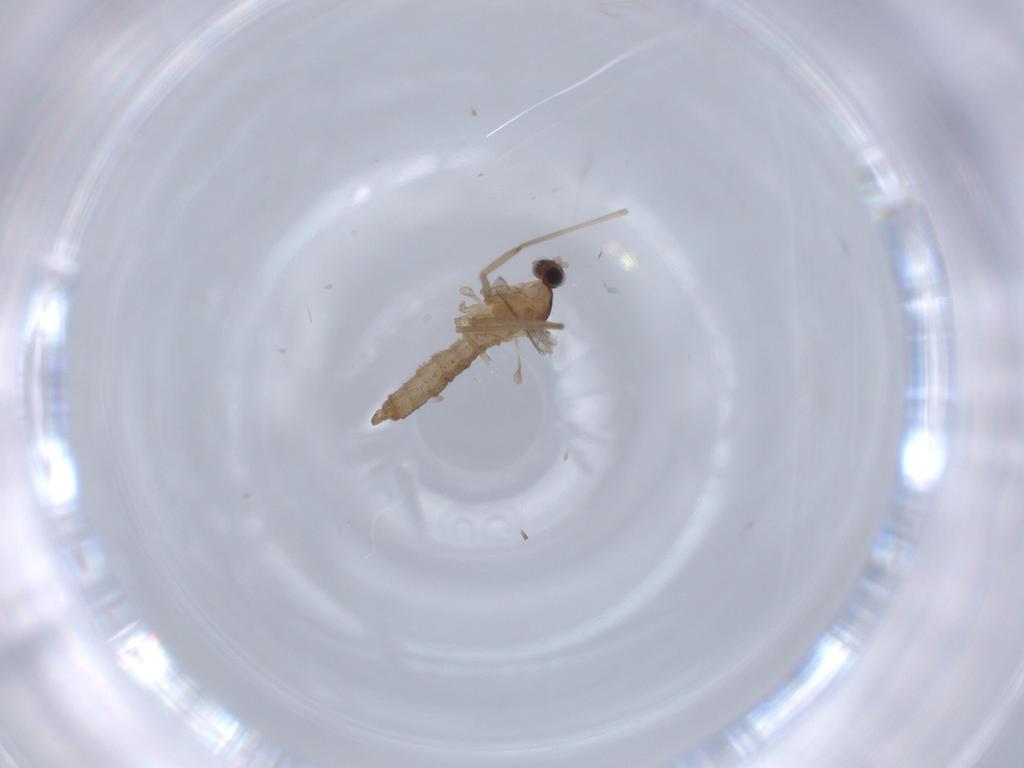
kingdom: Animalia
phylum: Arthropoda
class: Insecta
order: Diptera
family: Cecidomyiidae
